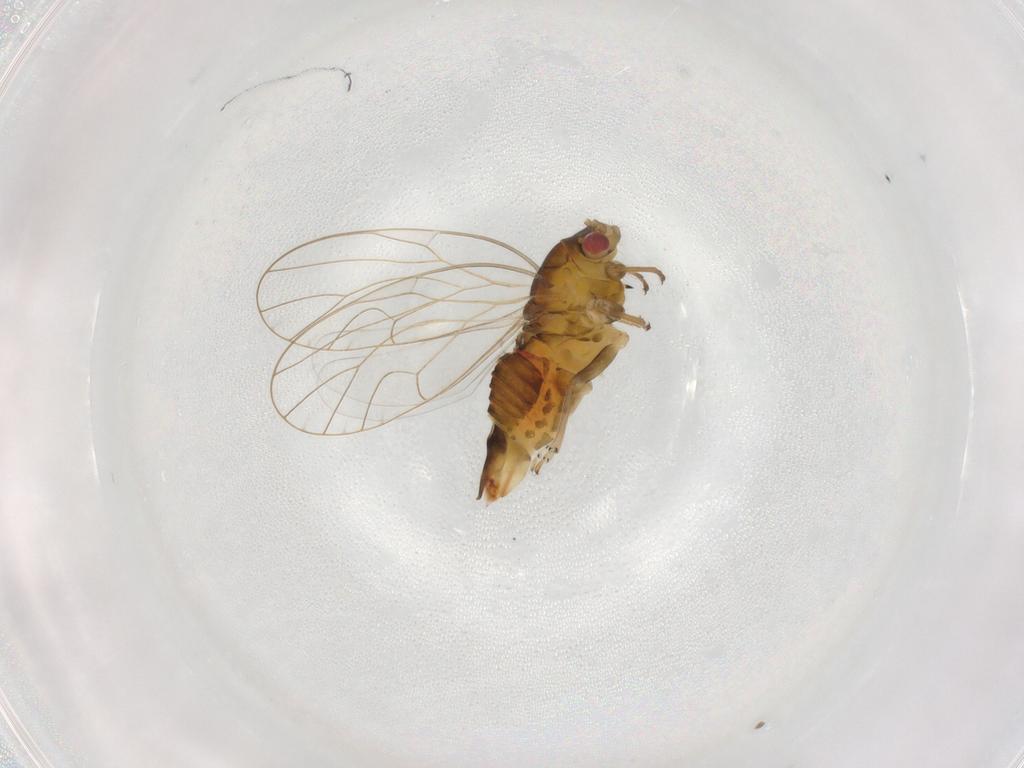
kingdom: Animalia
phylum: Arthropoda
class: Insecta
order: Hemiptera
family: Psyllidae
